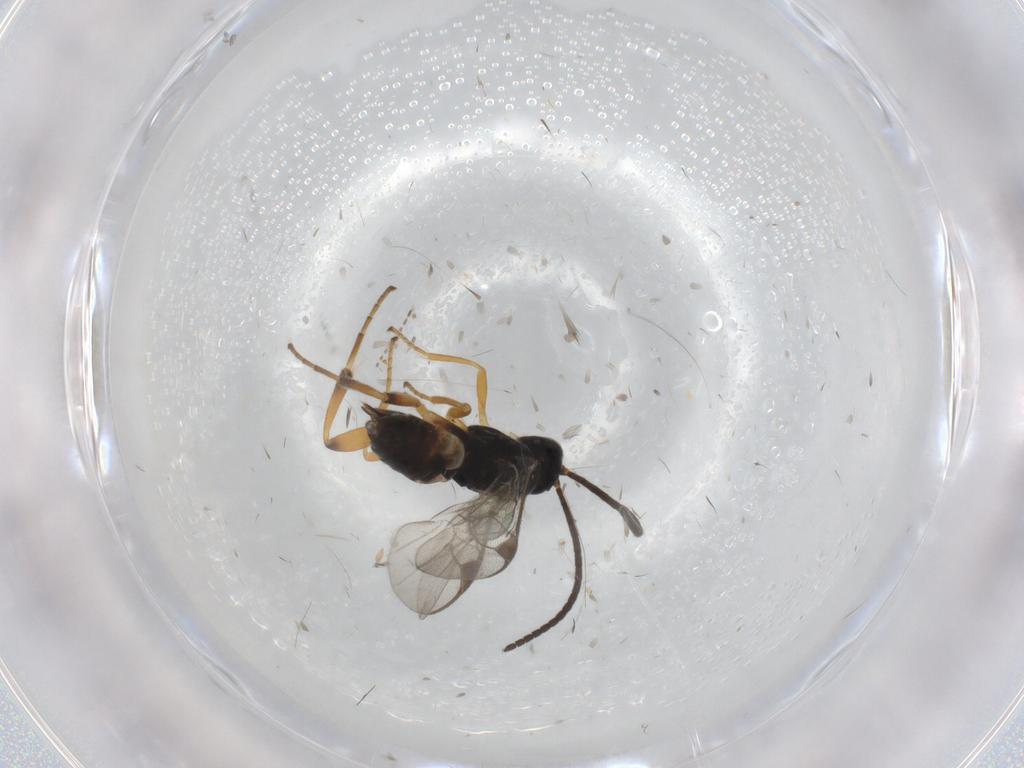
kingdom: Animalia
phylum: Arthropoda
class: Insecta
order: Hymenoptera
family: Braconidae
